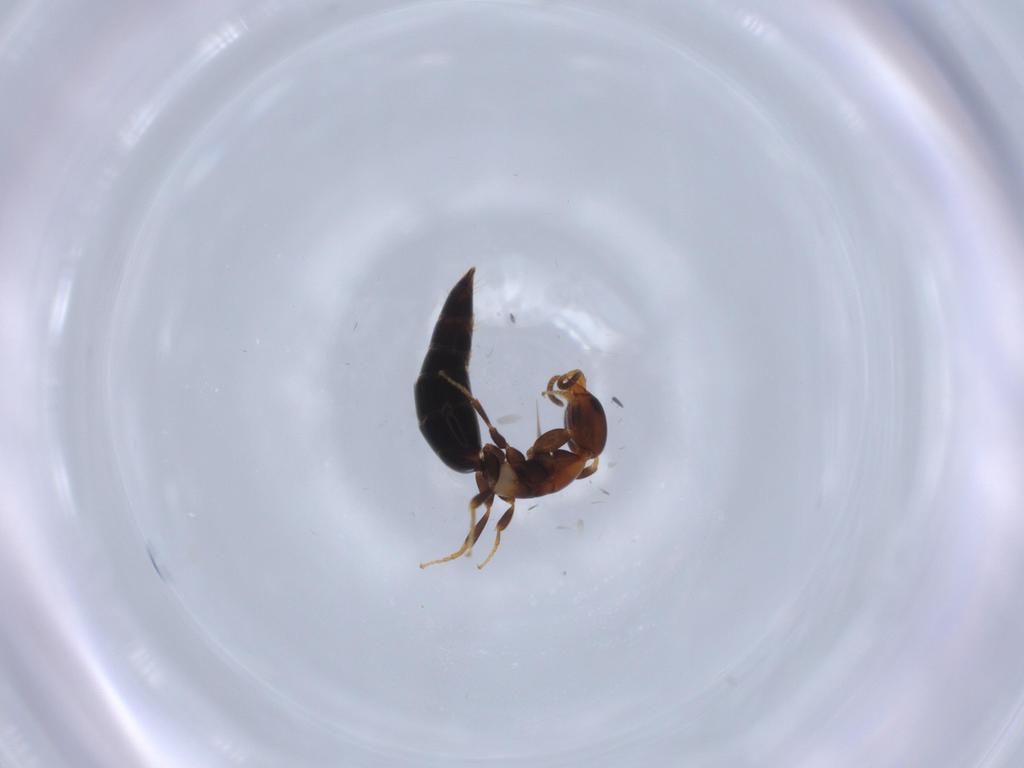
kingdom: Animalia
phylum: Arthropoda
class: Insecta
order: Hymenoptera
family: Bethylidae
